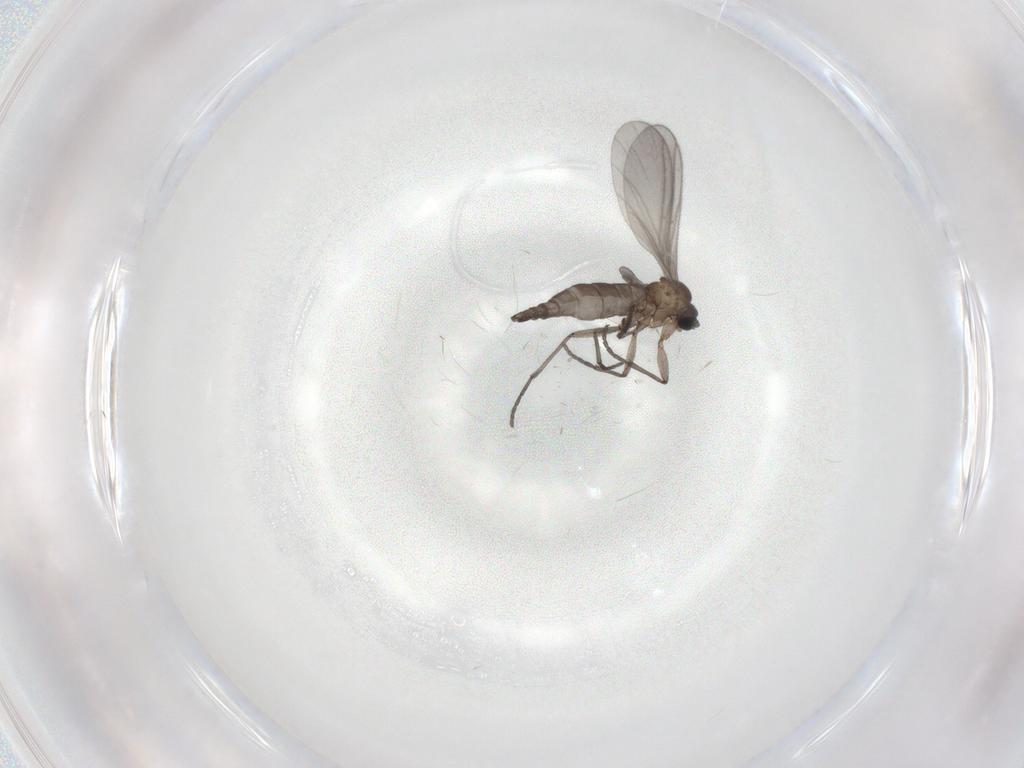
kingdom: Animalia
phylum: Arthropoda
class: Insecta
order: Diptera
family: Sciaridae
